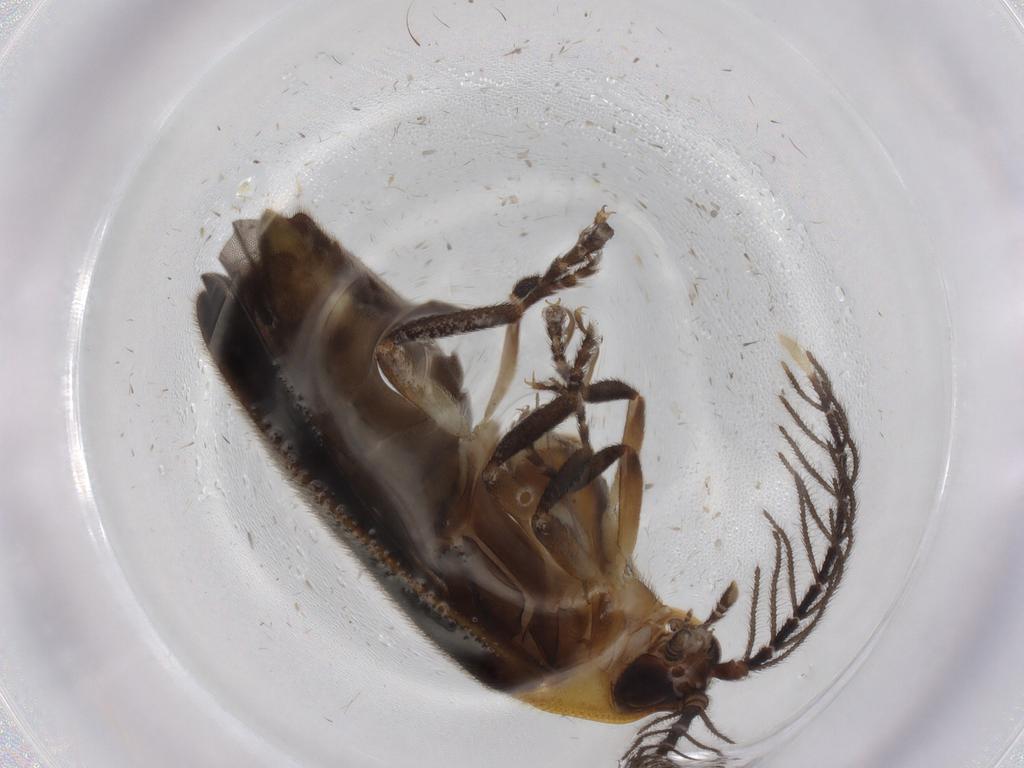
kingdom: Animalia
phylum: Arthropoda
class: Insecta
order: Coleoptera
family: Lampyridae
